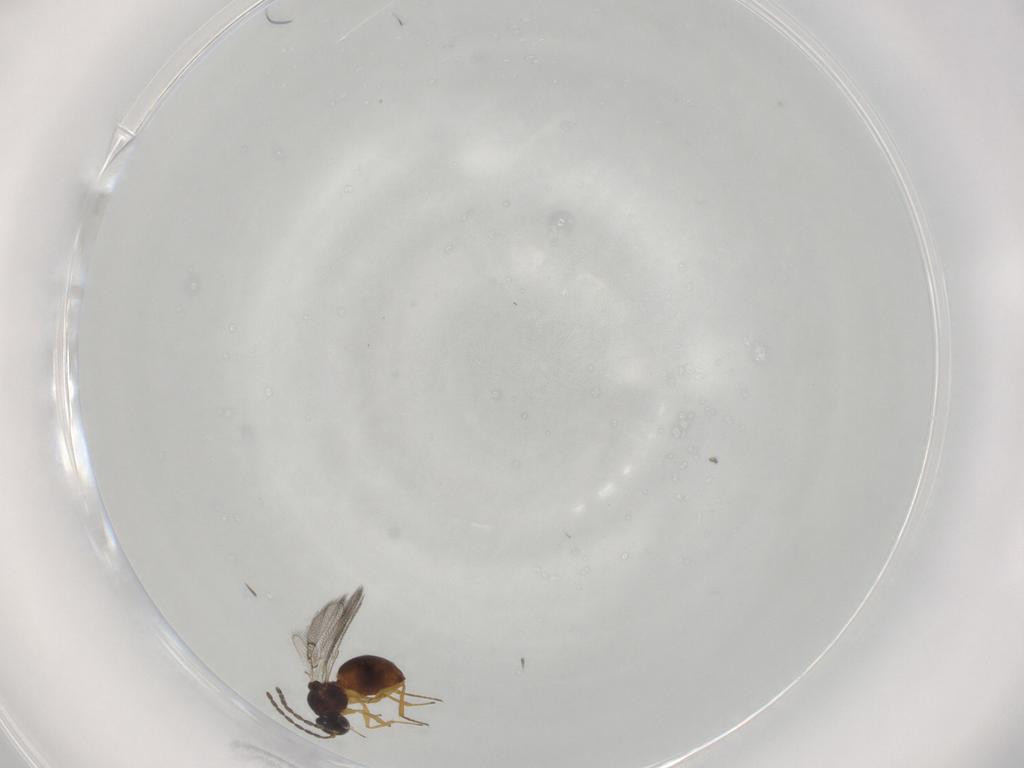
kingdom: Animalia
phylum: Arthropoda
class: Insecta
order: Hymenoptera
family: Figitidae
